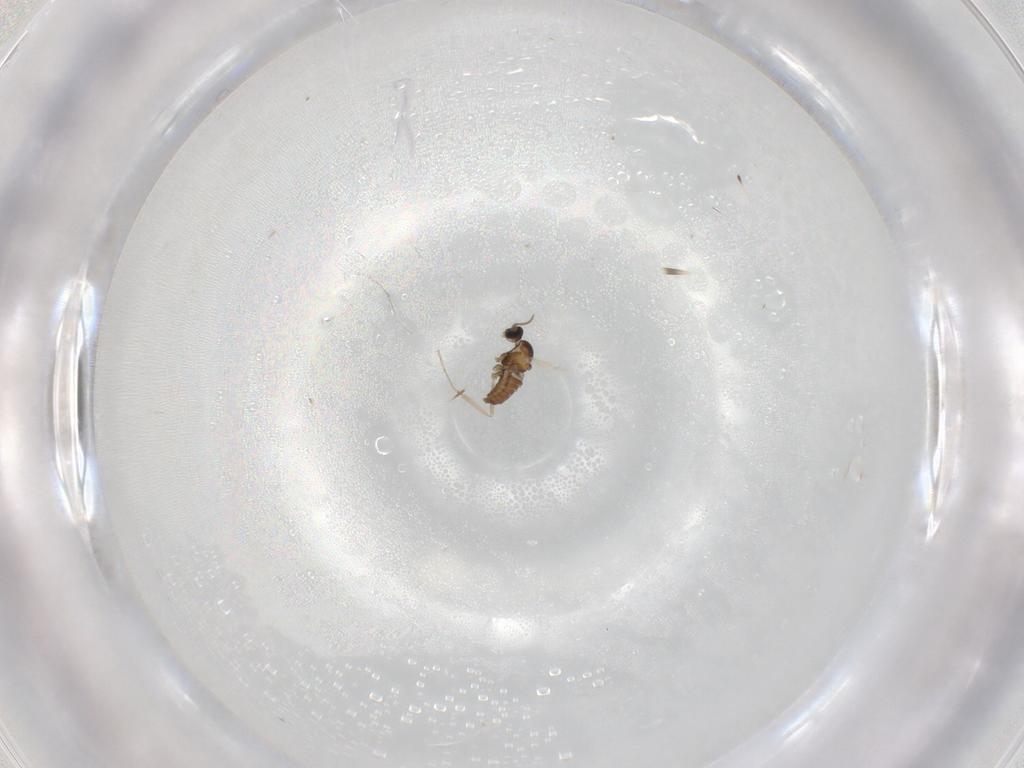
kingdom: Animalia
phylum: Arthropoda
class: Insecta
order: Diptera
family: Cecidomyiidae
